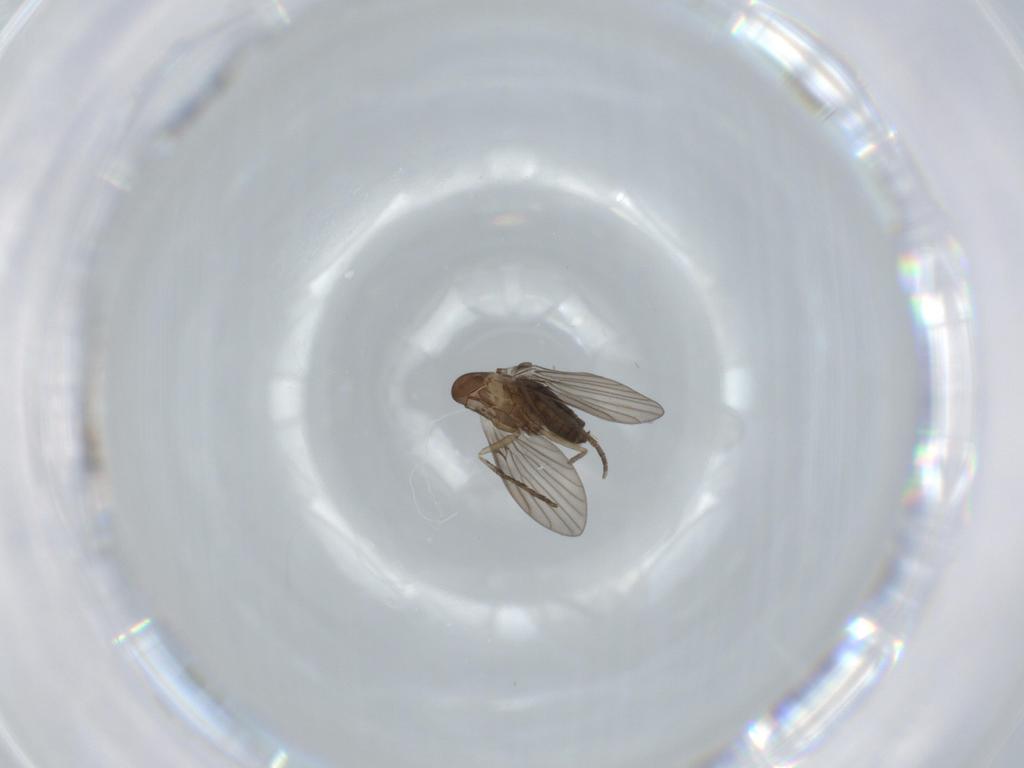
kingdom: Animalia
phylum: Arthropoda
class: Insecta
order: Diptera
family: Psychodidae
